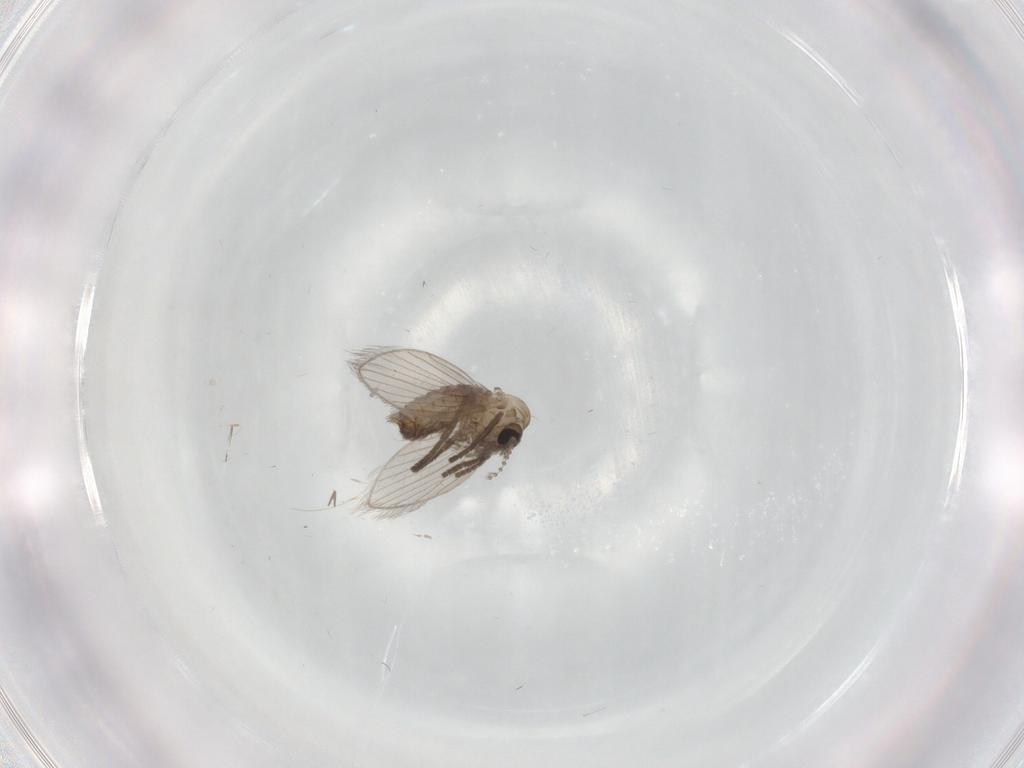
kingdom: Animalia
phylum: Arthropoda
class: Insecta
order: Diptera
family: Psychodidae
